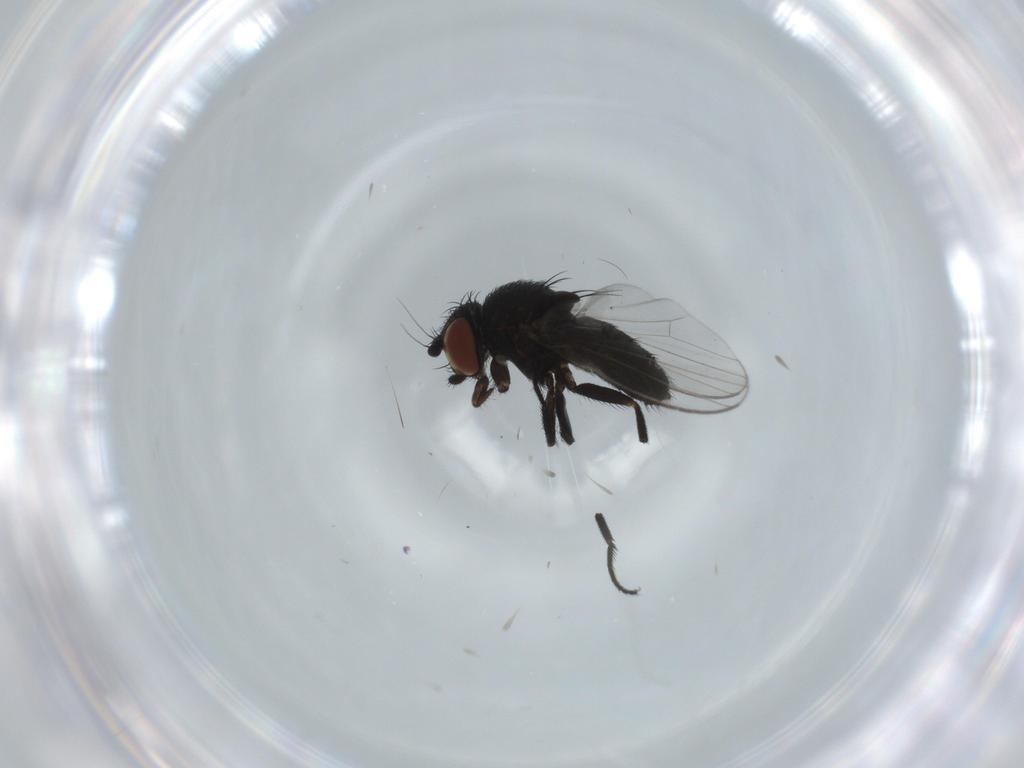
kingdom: Animalia
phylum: Arthropoda
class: Insecta
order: Diptera
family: Milichiidae
